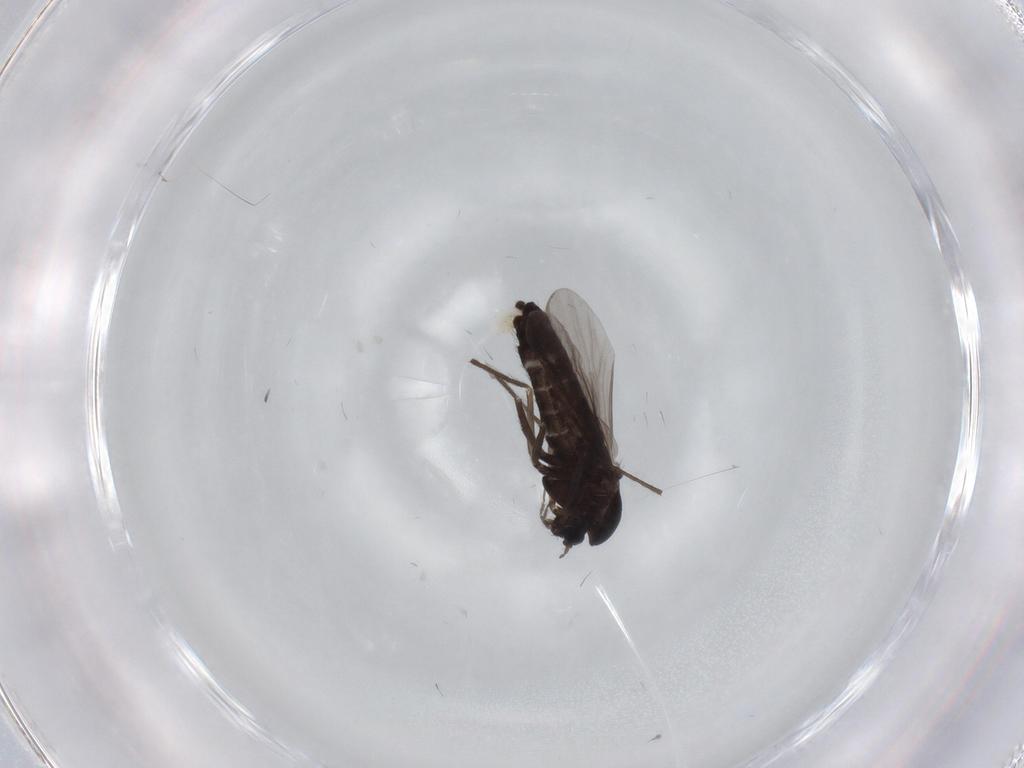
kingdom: Animalia
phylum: Arthropoda
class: Insecta
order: Diptera
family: Chironomidae
